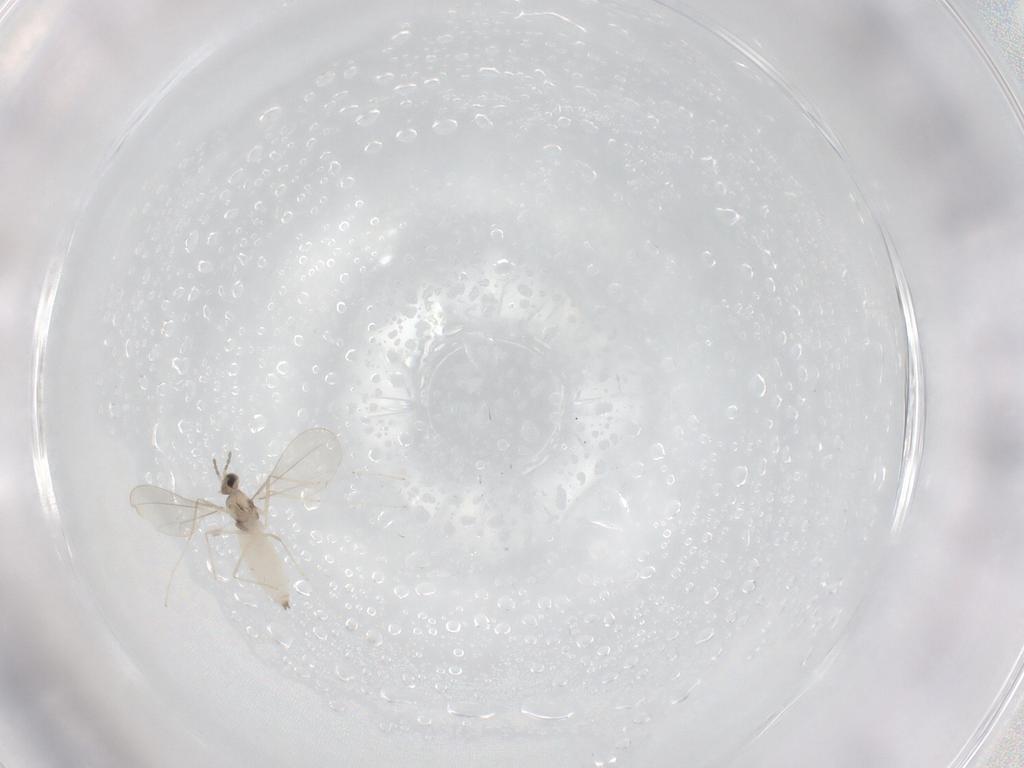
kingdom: Animalia
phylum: Arthropoda
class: Insecta
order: Diptera
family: Cecidomyiidae
